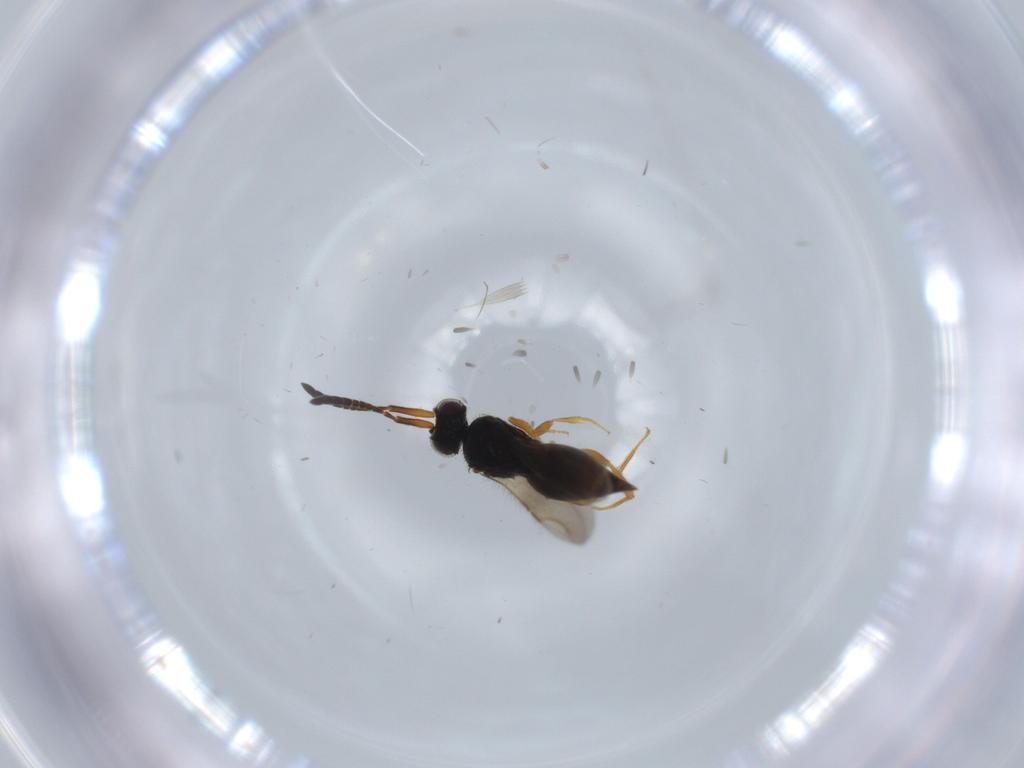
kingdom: Animalia
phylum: Arthropoda
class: Insecta
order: Hymenoptera
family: Ceraphronidae
